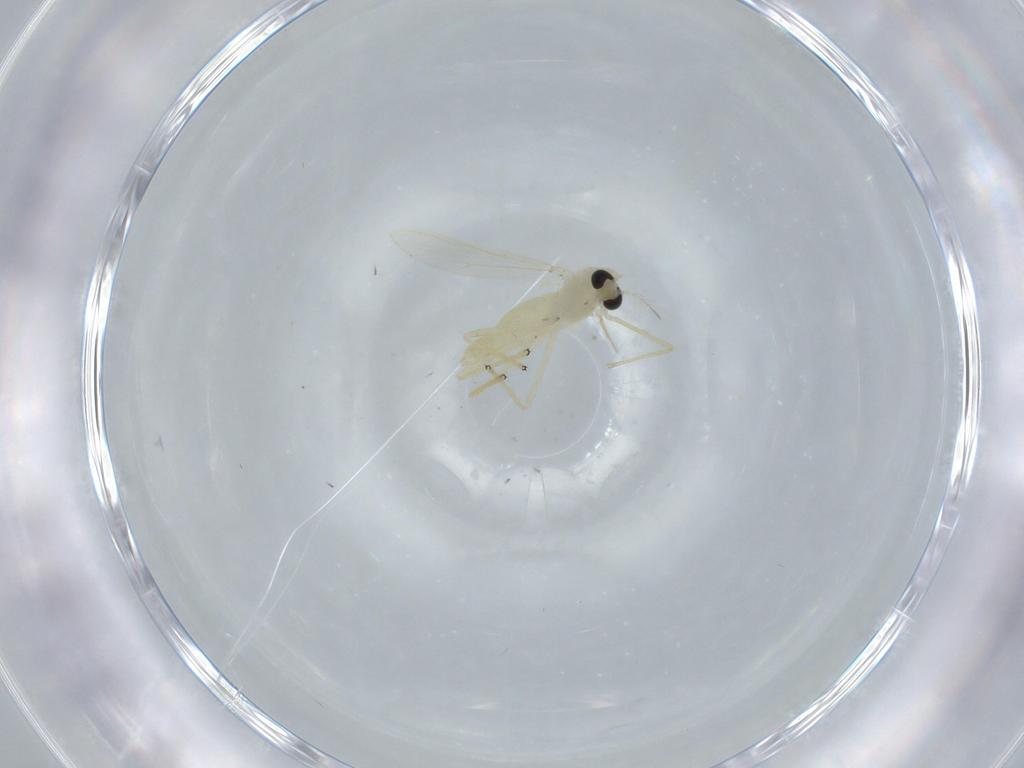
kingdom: Animalia
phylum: Arthropoda
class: Insecta
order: Diptera
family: Chironomidae
